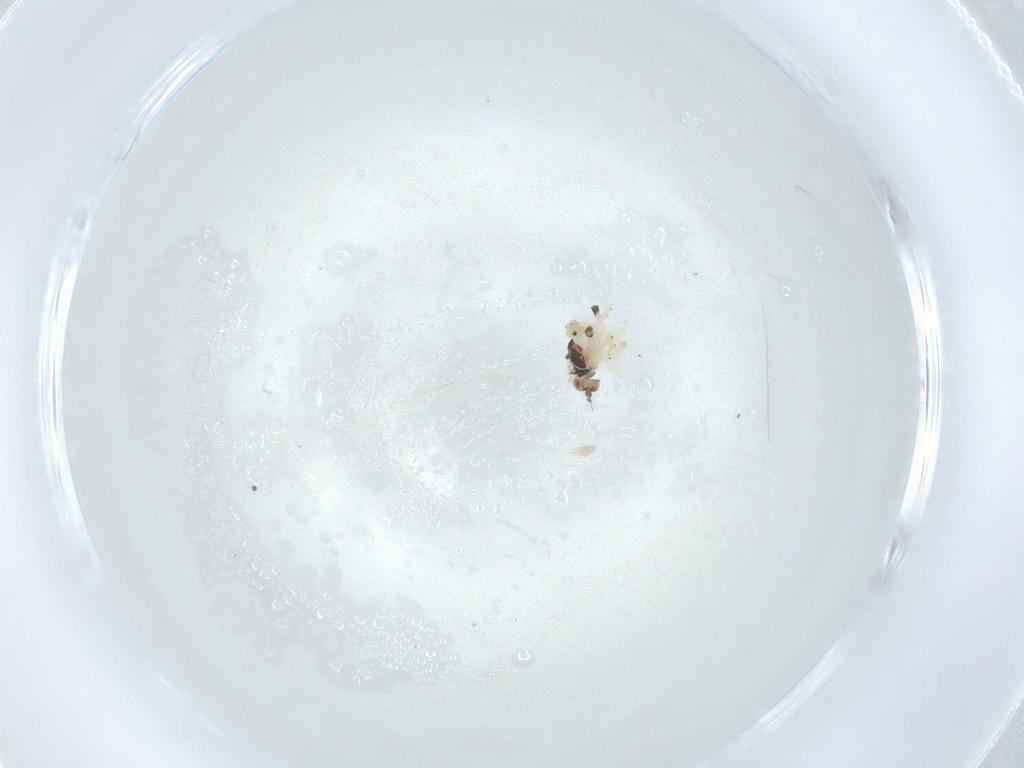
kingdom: Animalia
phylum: Arthropoda
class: Insecta
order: Hemiptera
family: Nogodinidae
